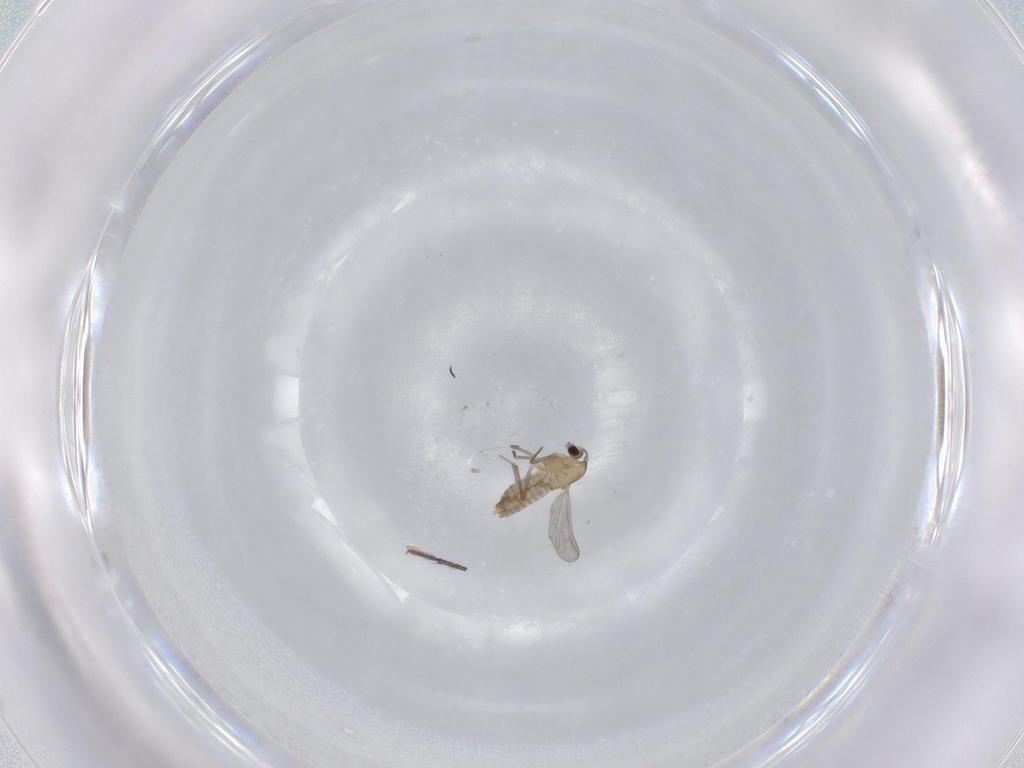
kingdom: Animalia
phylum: Arthropoda
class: Insecta
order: Diptera
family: Chironomidae
